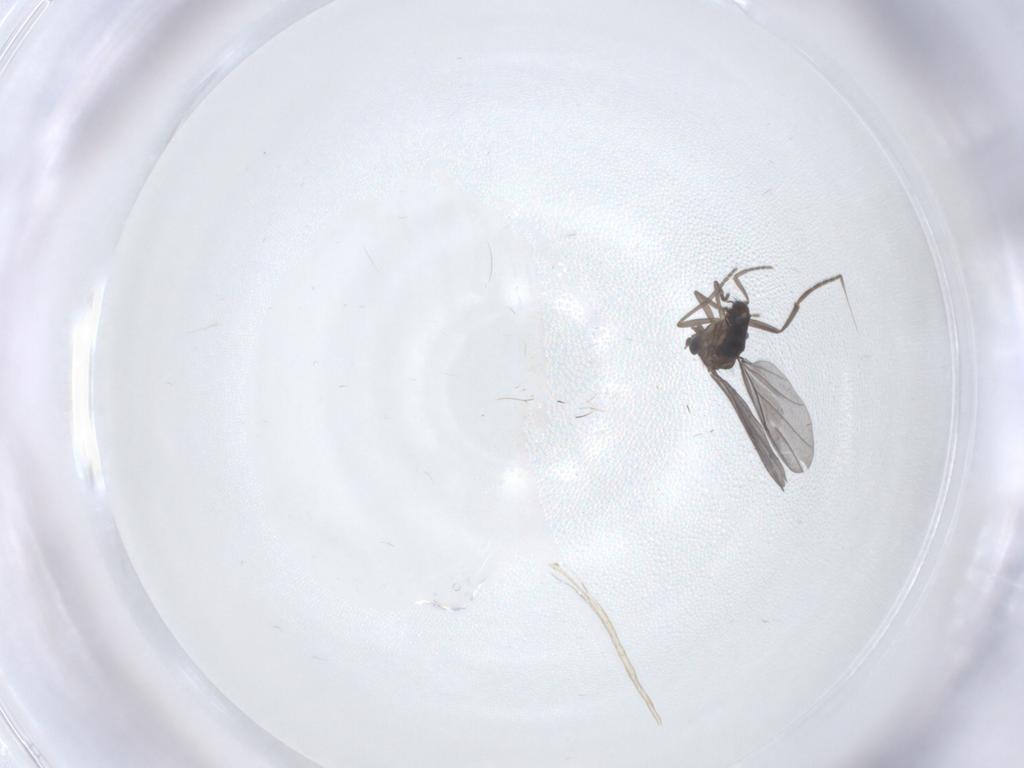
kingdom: Animalia
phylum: Arthropoda
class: Insecta
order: Diptera
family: Phoridae
